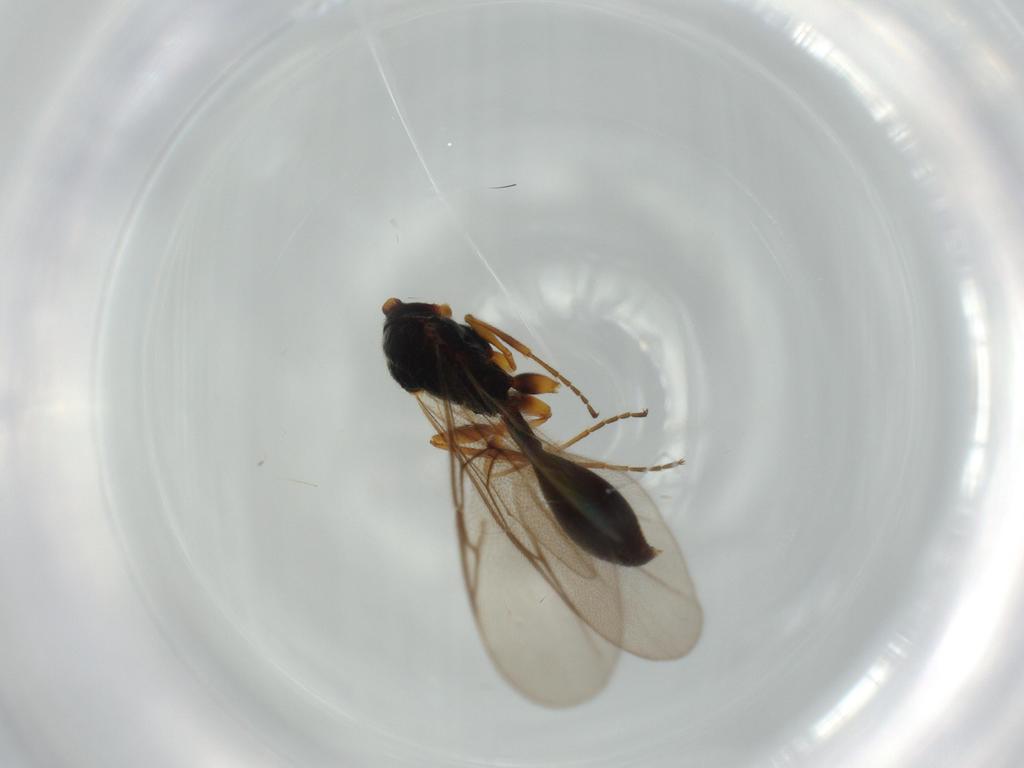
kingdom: Animalia
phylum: Arthropoda
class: Insecta
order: Hymenoptera
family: Diapriidae
